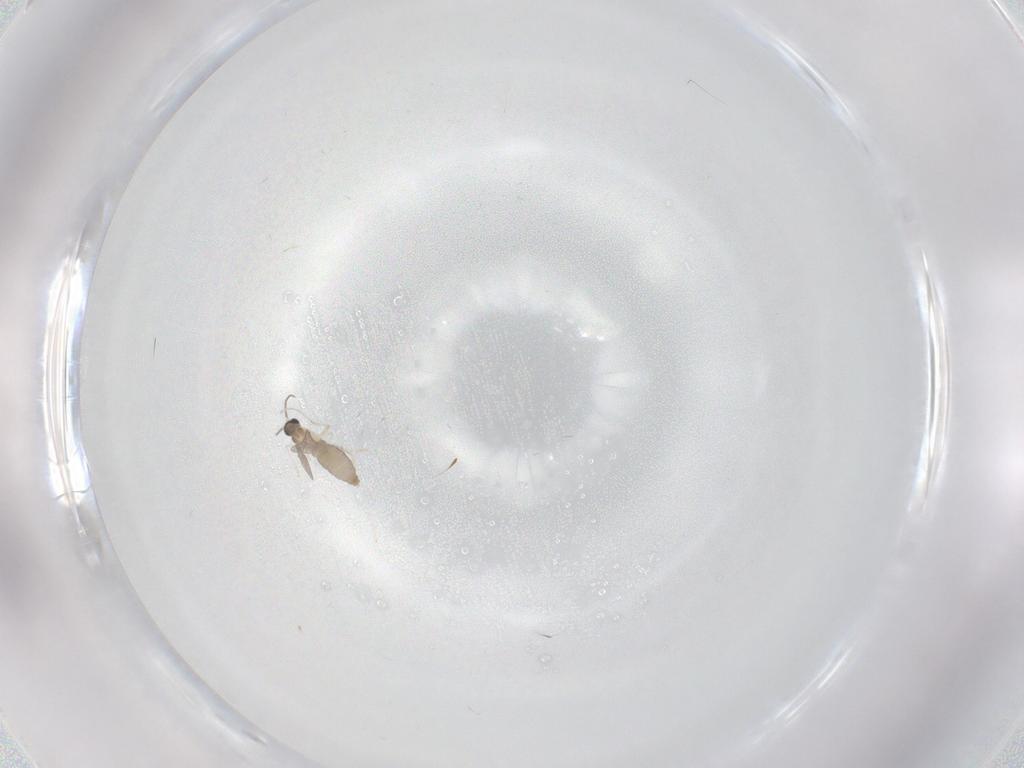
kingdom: Animalia
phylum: Arthropoda
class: Insecta
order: Diptera
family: Cecidomyiidae
